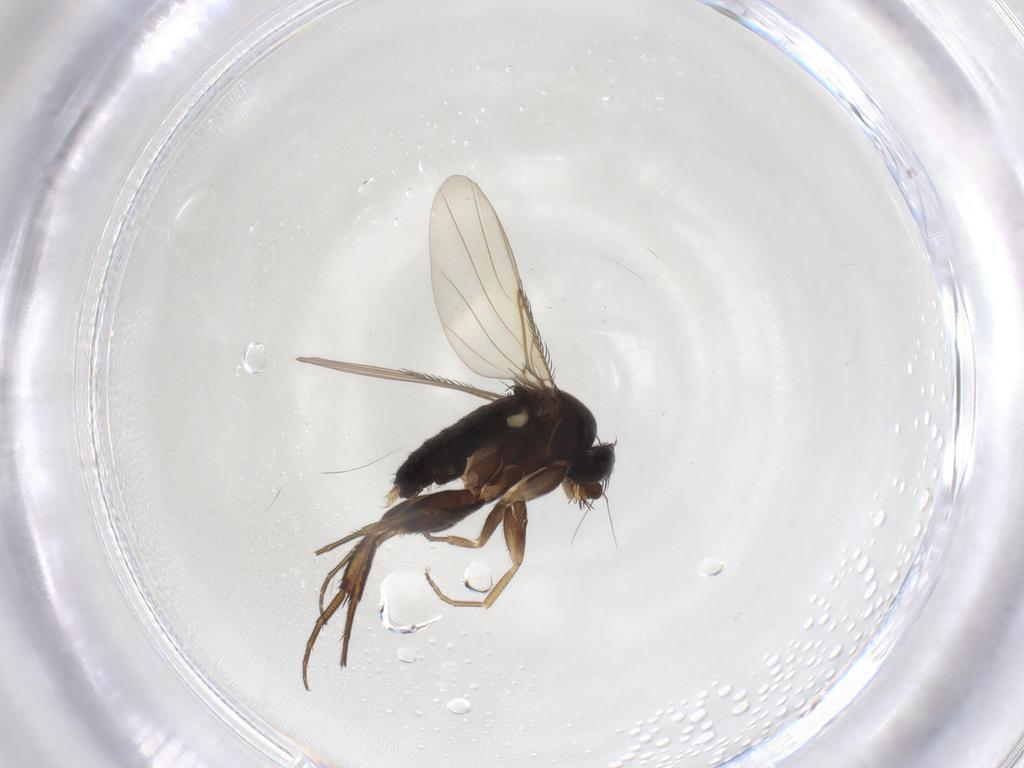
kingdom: Animalia
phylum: Arthropoda
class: Insecta
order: Diptera
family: Phoridae
